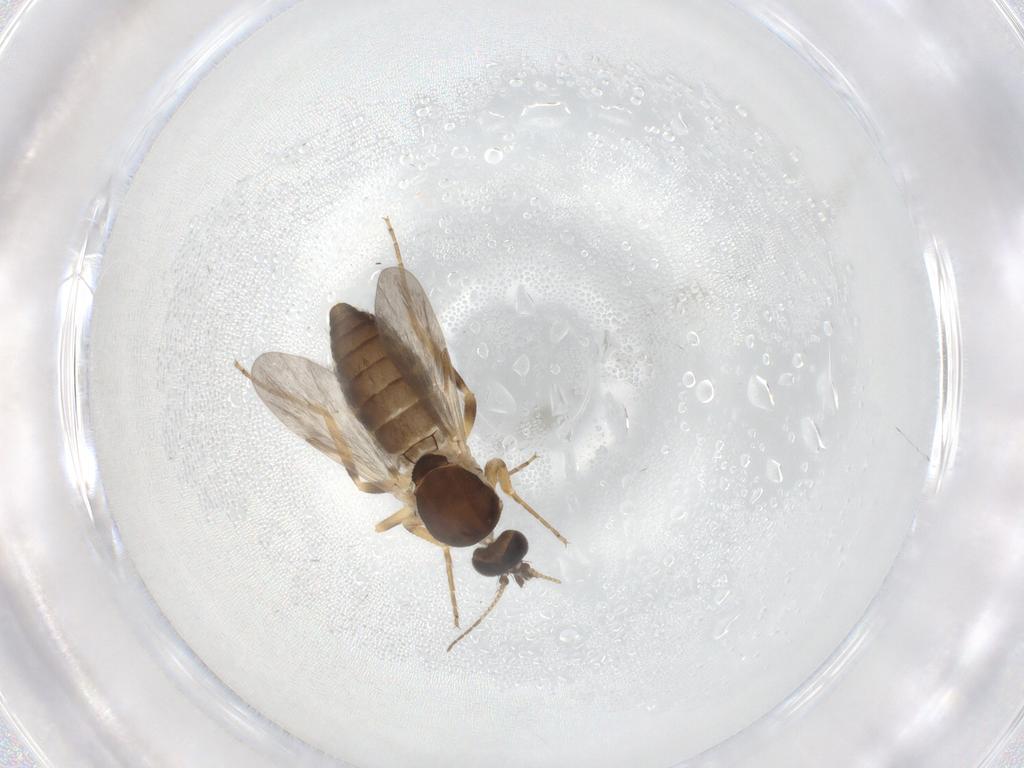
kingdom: Animalia
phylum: Arthropoda
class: Insecta
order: Diptera
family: Ceratopogonidae
